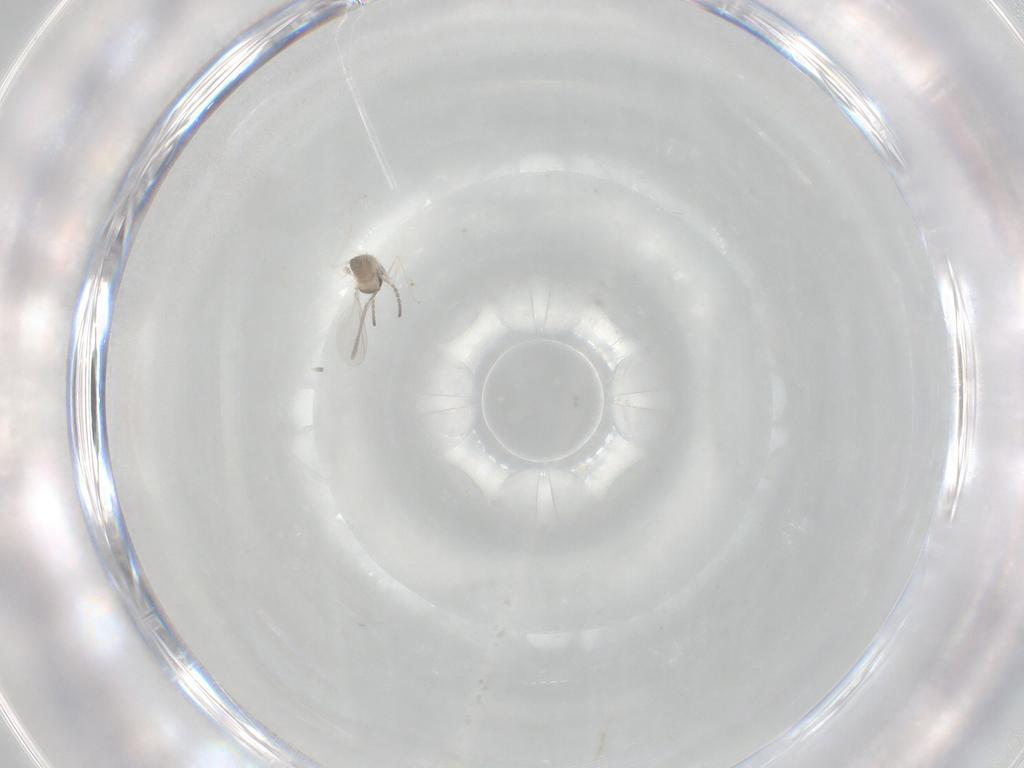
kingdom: Animalia
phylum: Arthropoda
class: Insecta
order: Diptera
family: Cecidomyiidae
